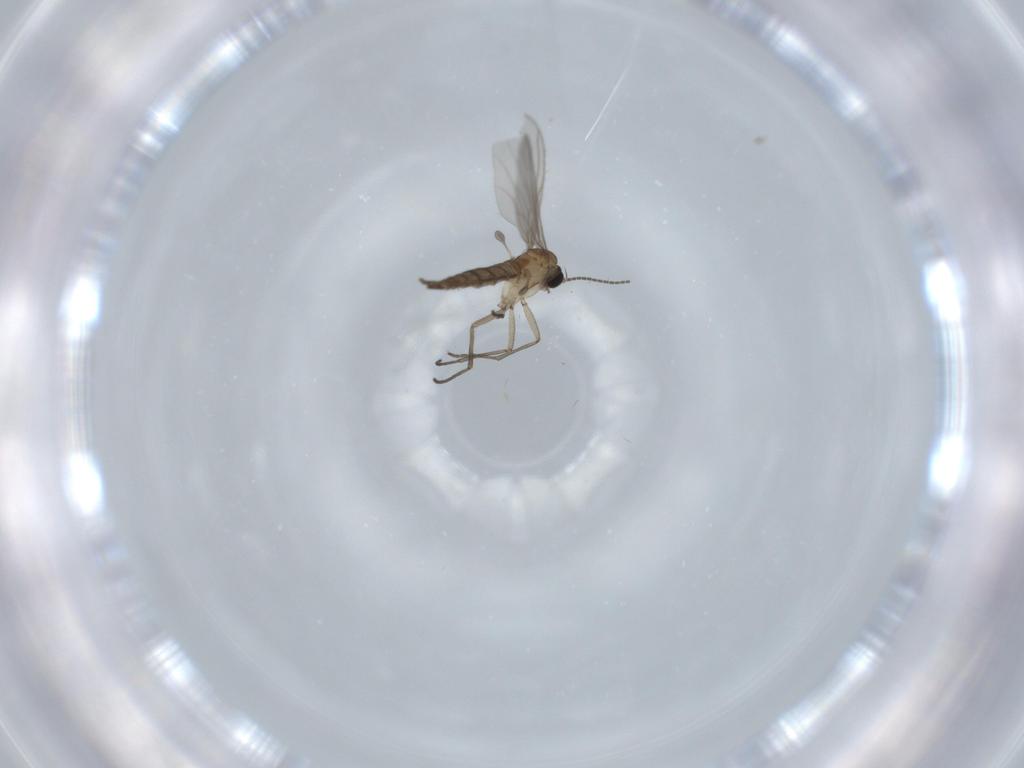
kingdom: Animalia
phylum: Arthropoda
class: Insecta
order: Diptera
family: Sciaridae
